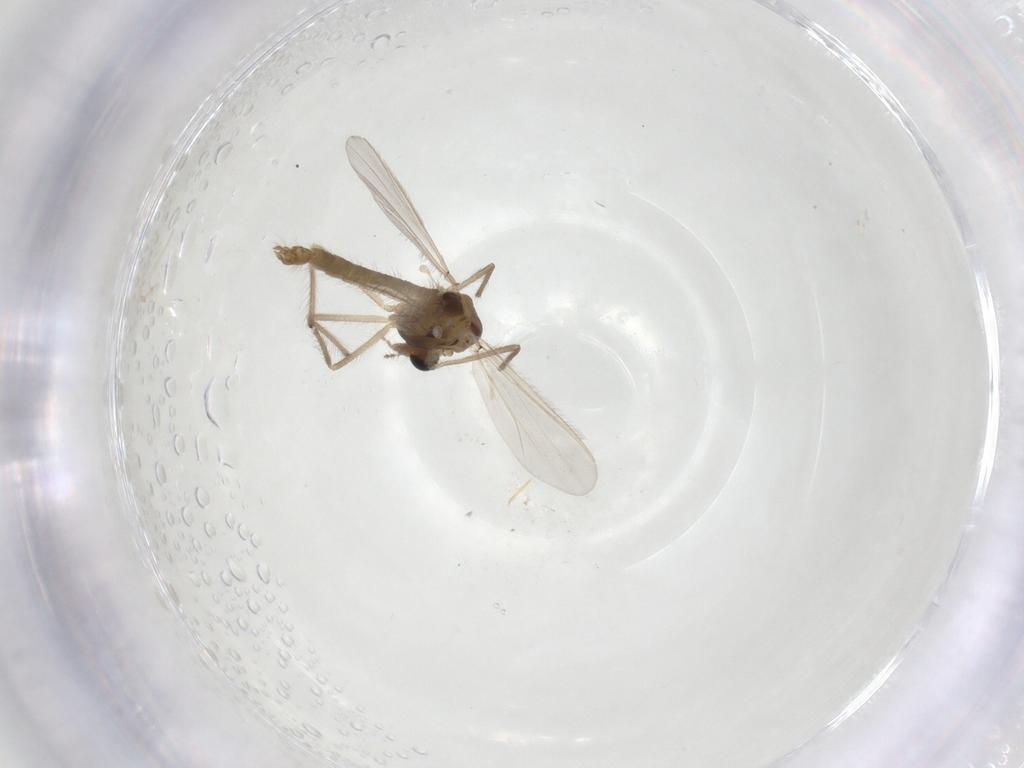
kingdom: Animalia
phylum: Arthropoda
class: Insecta
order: Diptera
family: Chironomidae
